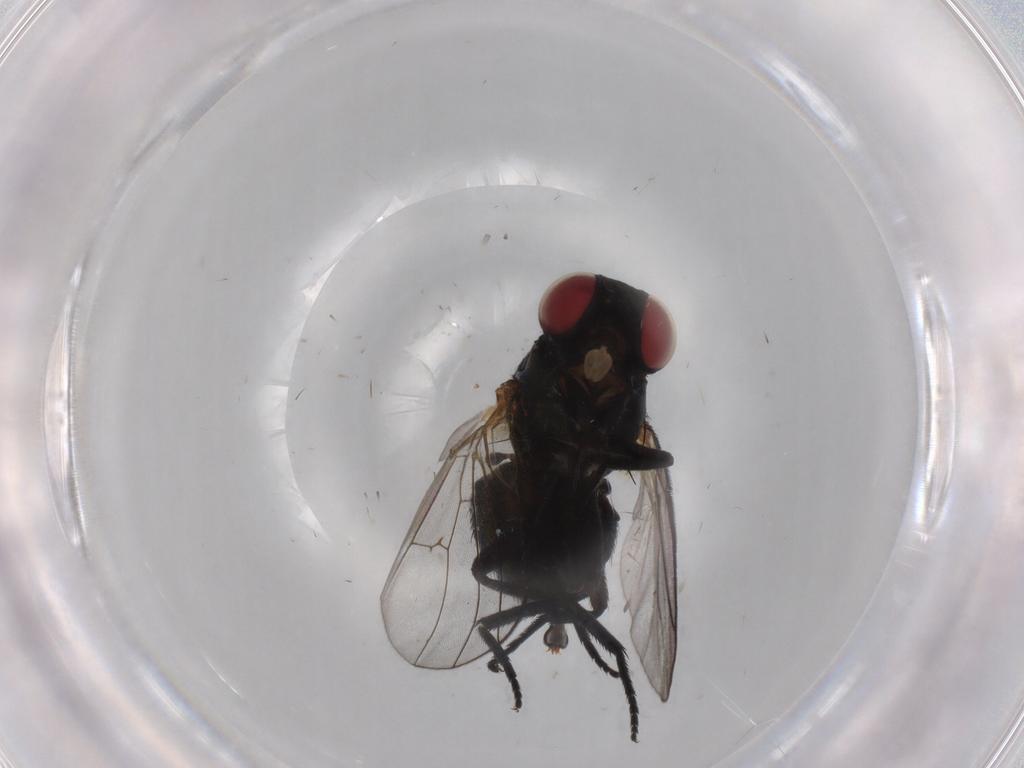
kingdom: Animalia
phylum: Arthropoda
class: Insecta
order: Diptera
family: Agromyzidae
